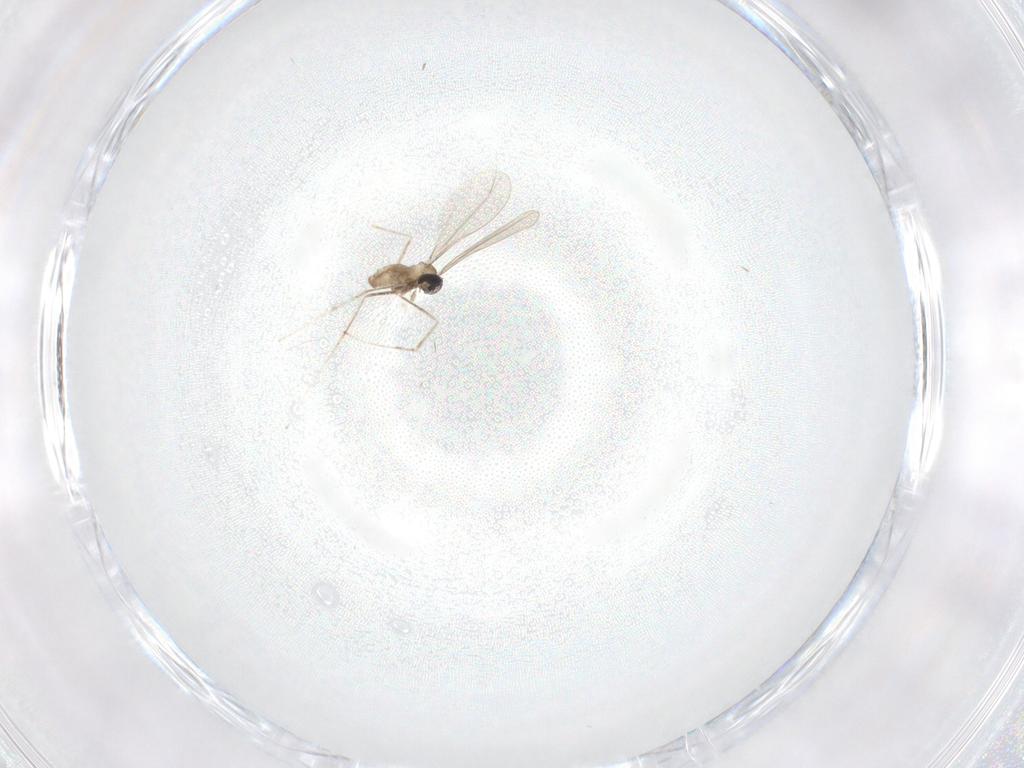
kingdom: Animalia
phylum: Arthropoda
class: Insecta
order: Diptera
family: Cecidomyiidae
